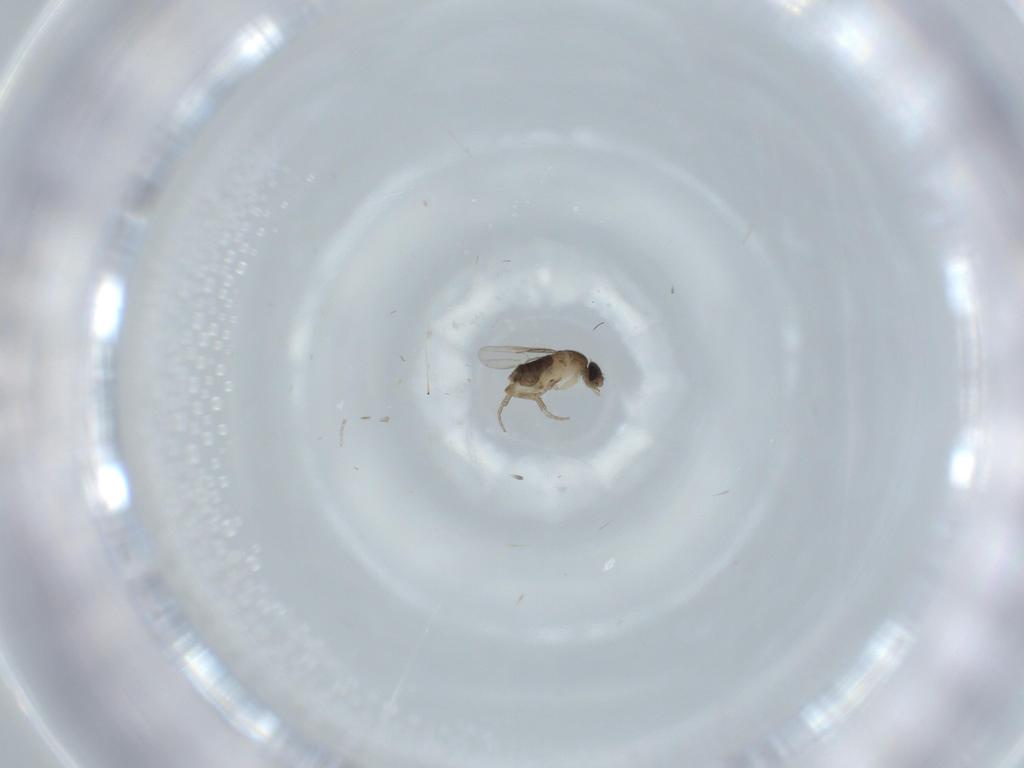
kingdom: Animalia
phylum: Arthropoda
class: Insecta
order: Diptera
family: Phoridae
